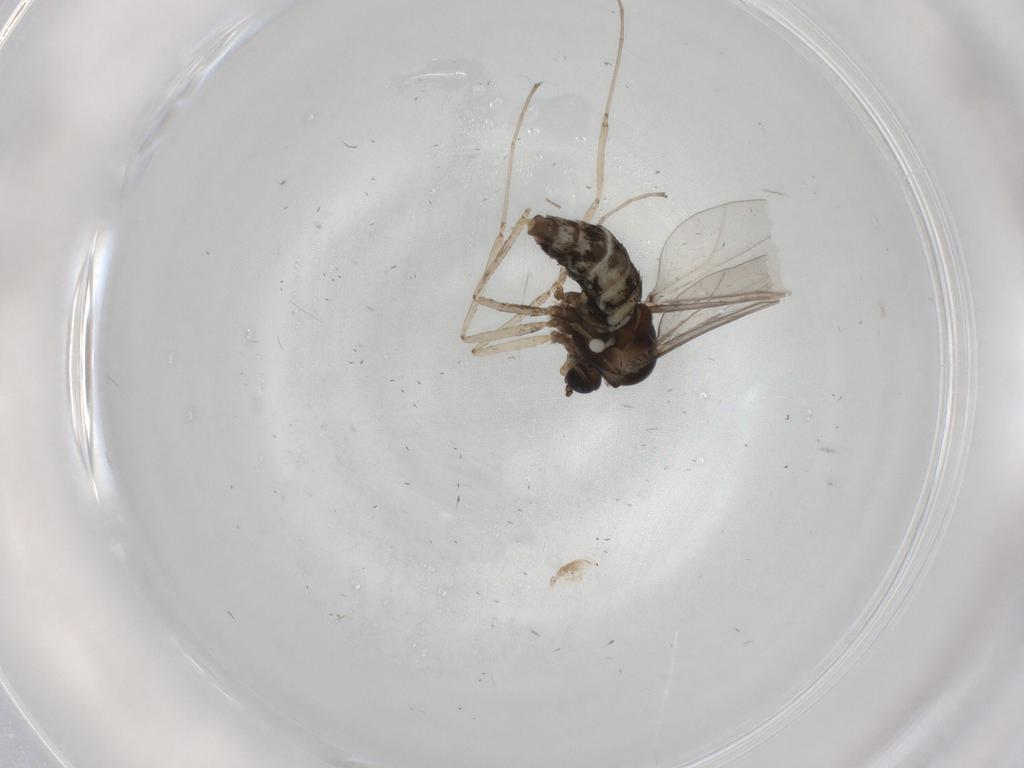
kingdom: Animalia
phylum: Arthropoda
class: Insecta
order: Diptera
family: Cecidomyiidae
